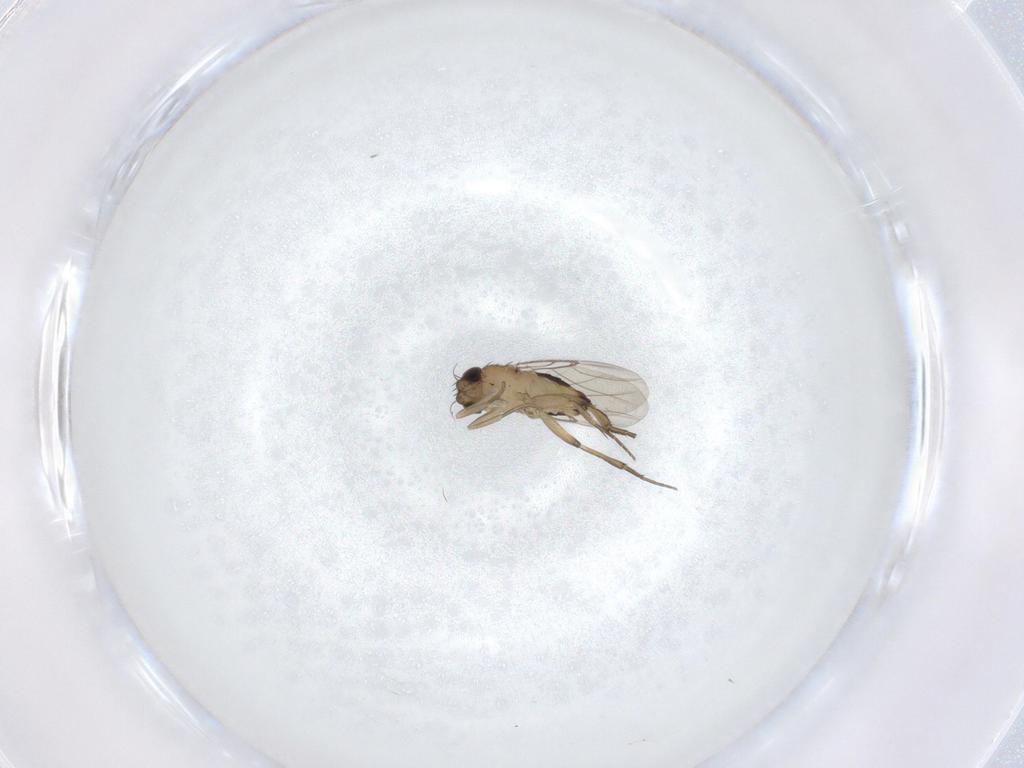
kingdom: Animalia
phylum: Arthropoda
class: Insecta
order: Diptera
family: Phoridae
